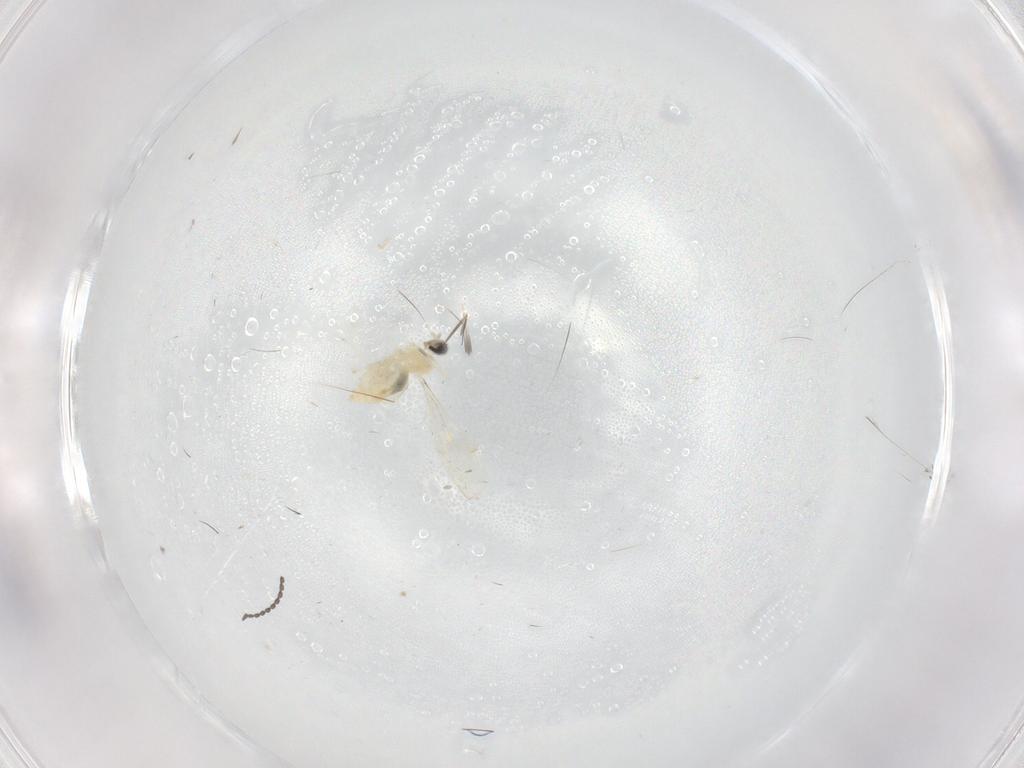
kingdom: Animalia
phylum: Arthropoda
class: Insecta
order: Diptera
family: Cecidomyiidae
